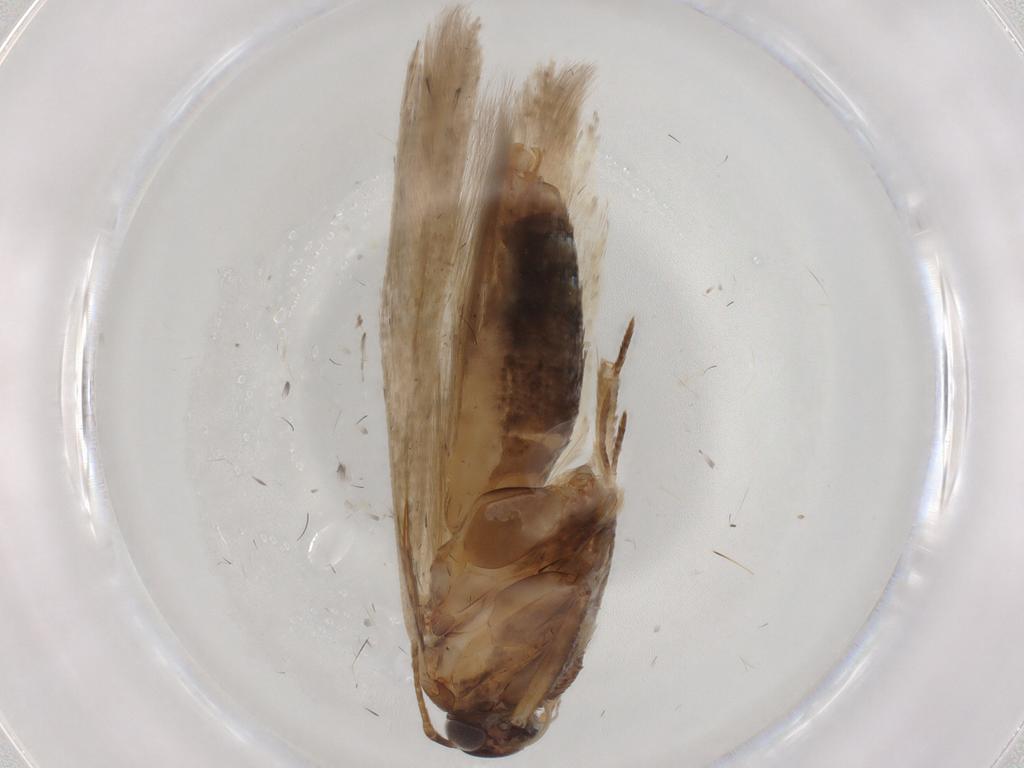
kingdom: Animalia
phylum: Arthropoda
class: Insecta
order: Lepidoptera
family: Gelechiidae
